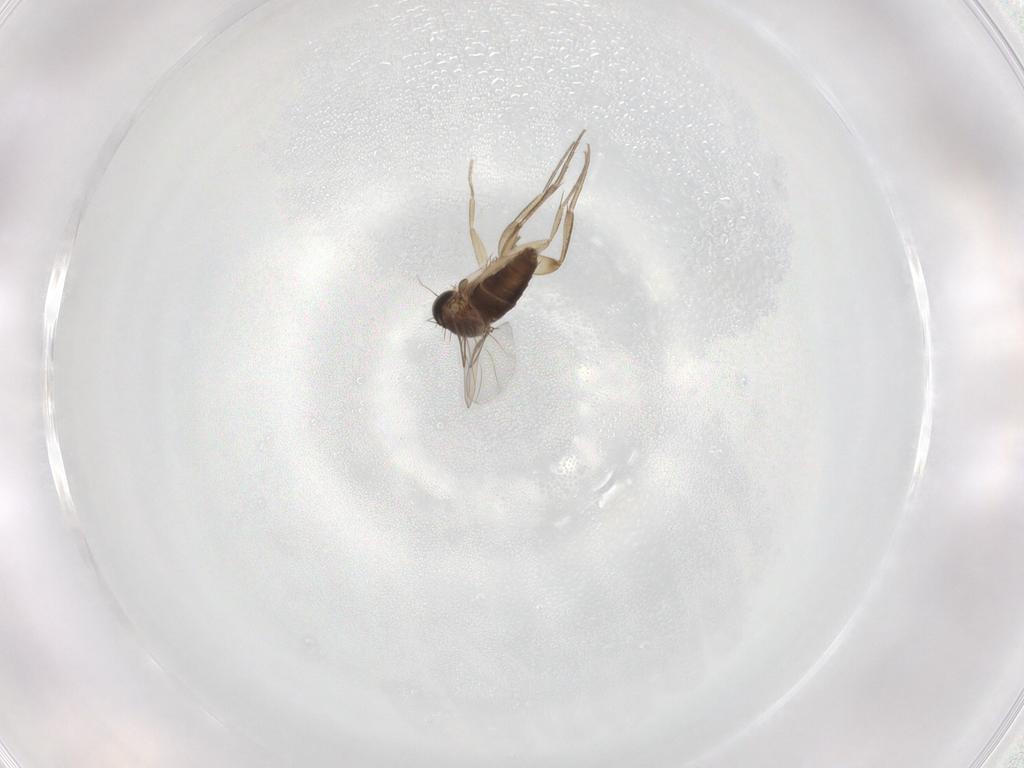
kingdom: Animalia
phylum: Arthropoda
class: Insecta
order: Diptera
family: Phoridae
